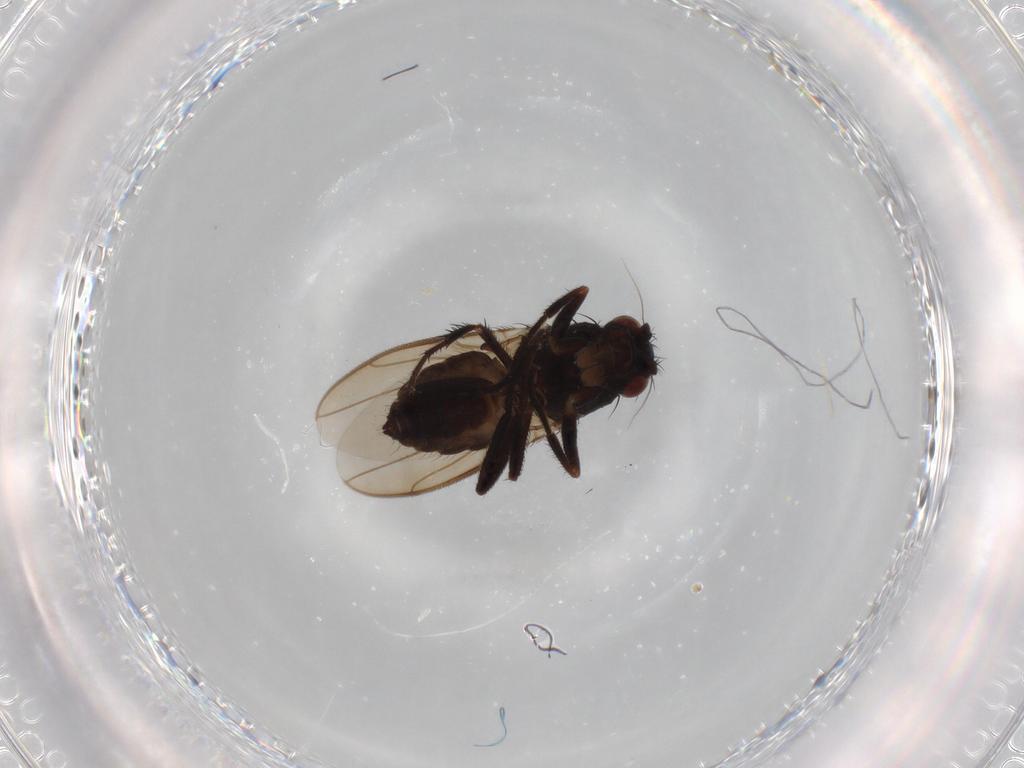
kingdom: Animalia
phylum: Arthropoda
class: Insecta
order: Diptera
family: Sphaeroceridae
